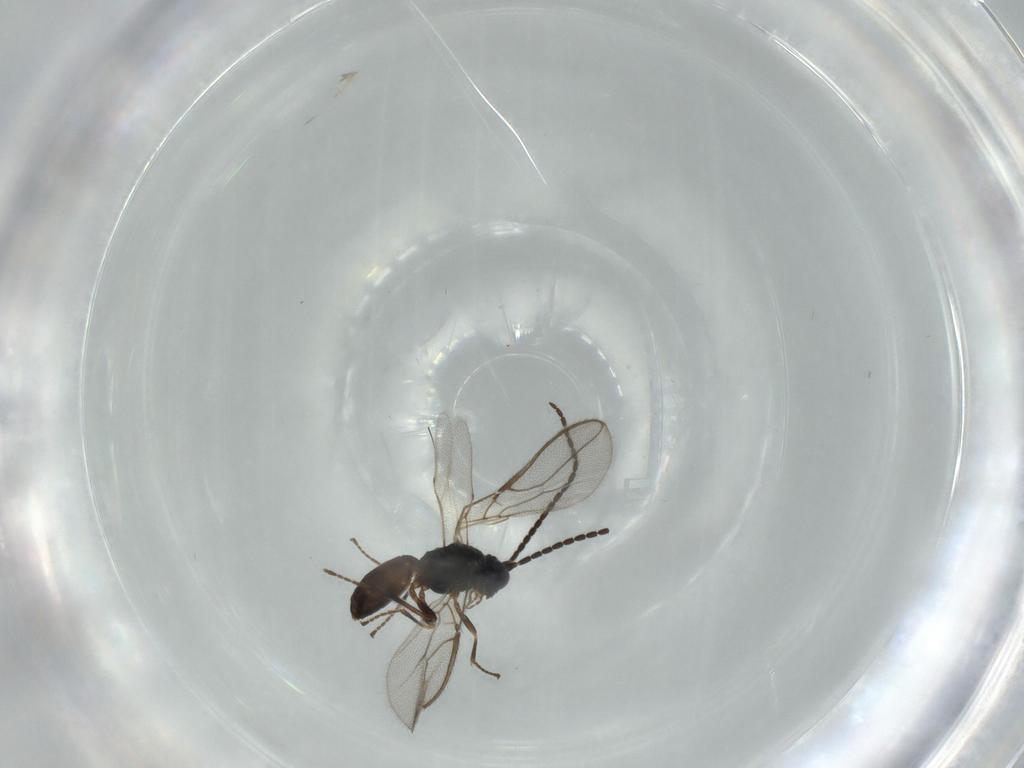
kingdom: Animalia
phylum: Arthropoda
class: Insecta
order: Hymenoptera
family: Braconidae
